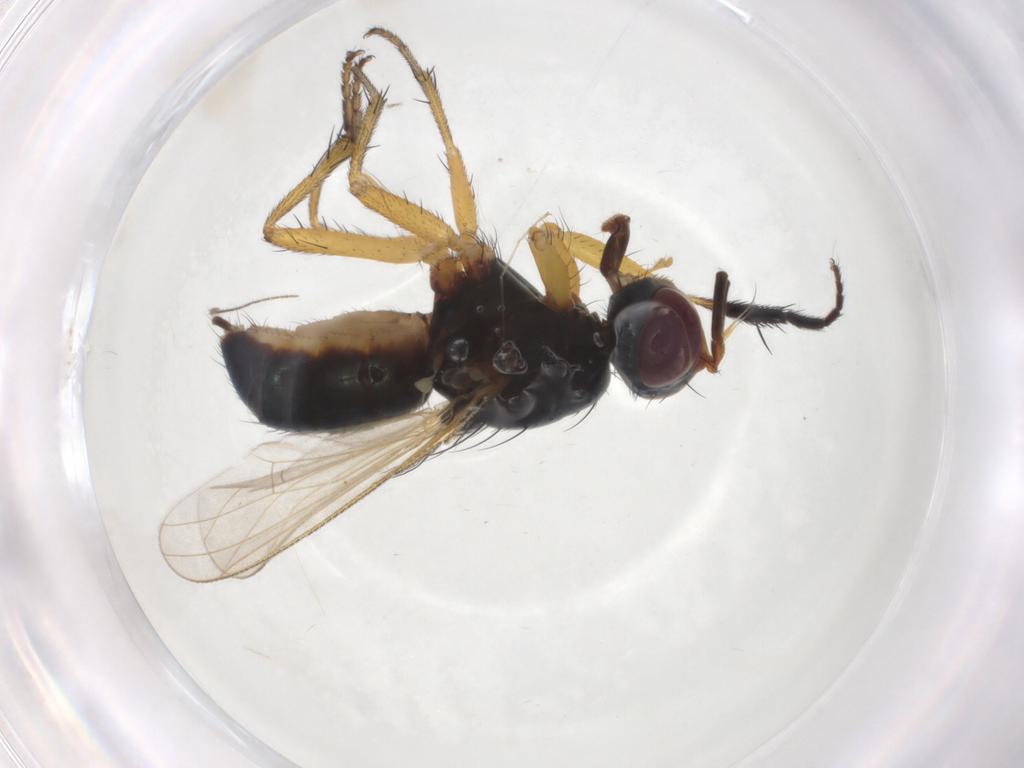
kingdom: Animalia
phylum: Arthropoda
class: Insecta
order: Diptera
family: Muscidae
